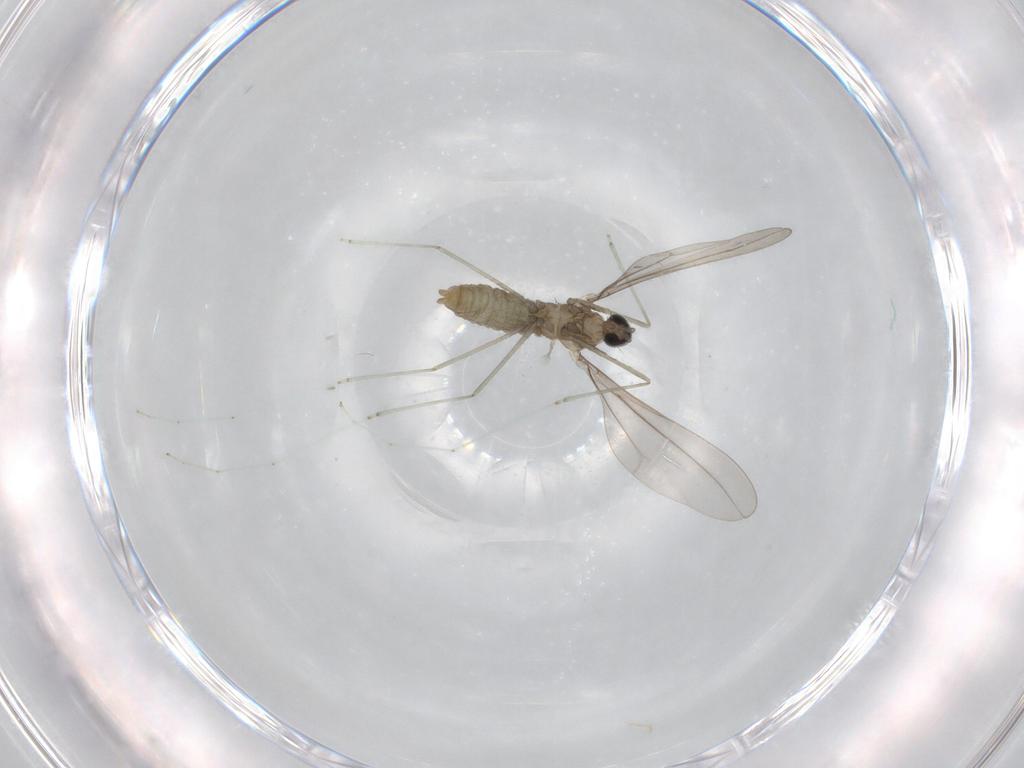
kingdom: Animalia
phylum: Arthropoda
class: Insecta
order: Diptera
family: Cecidomyiidae
